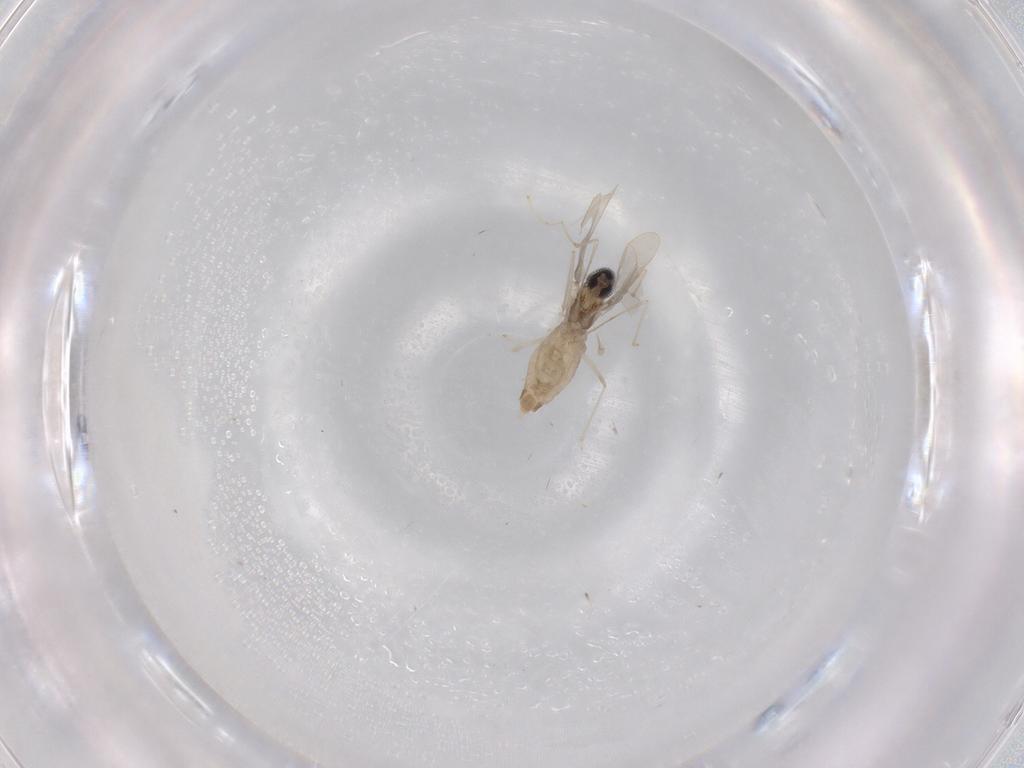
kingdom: Animalia
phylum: Arthropoda
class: Insecta
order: Diptera
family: Cecidomyiidae
